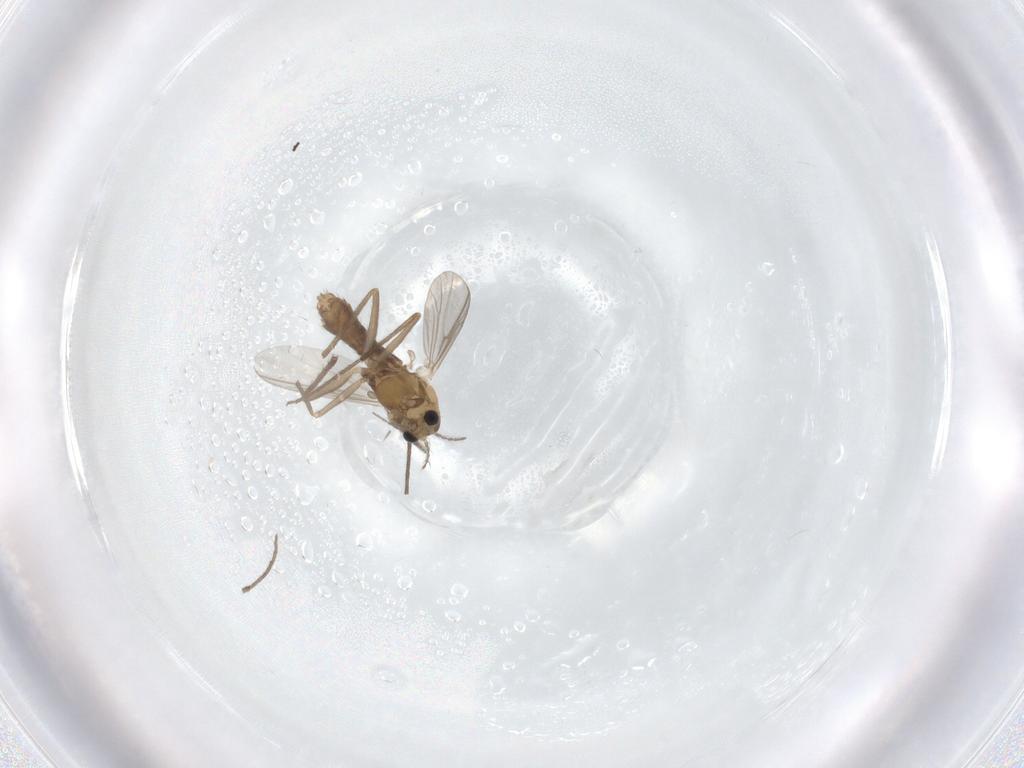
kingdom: Animalia
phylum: Arthropoda
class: Insecta
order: Diptera
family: Chironomidae
